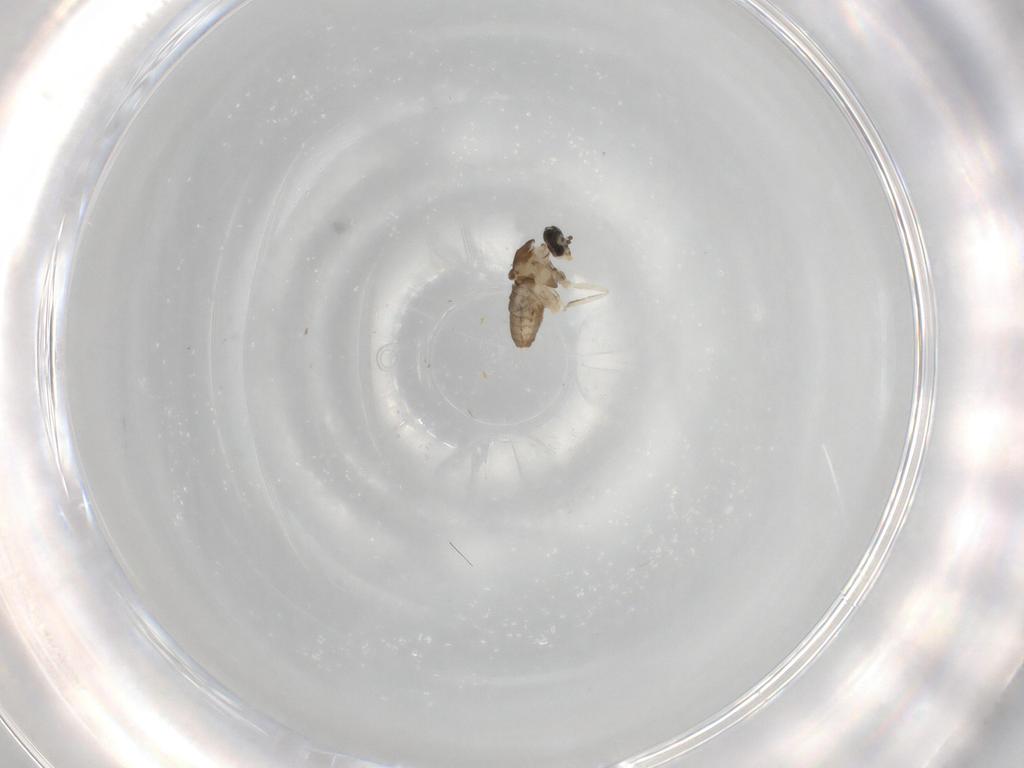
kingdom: Animalia
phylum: Arthropoda
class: Insecta
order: Diptera
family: Cecidomyiidae
